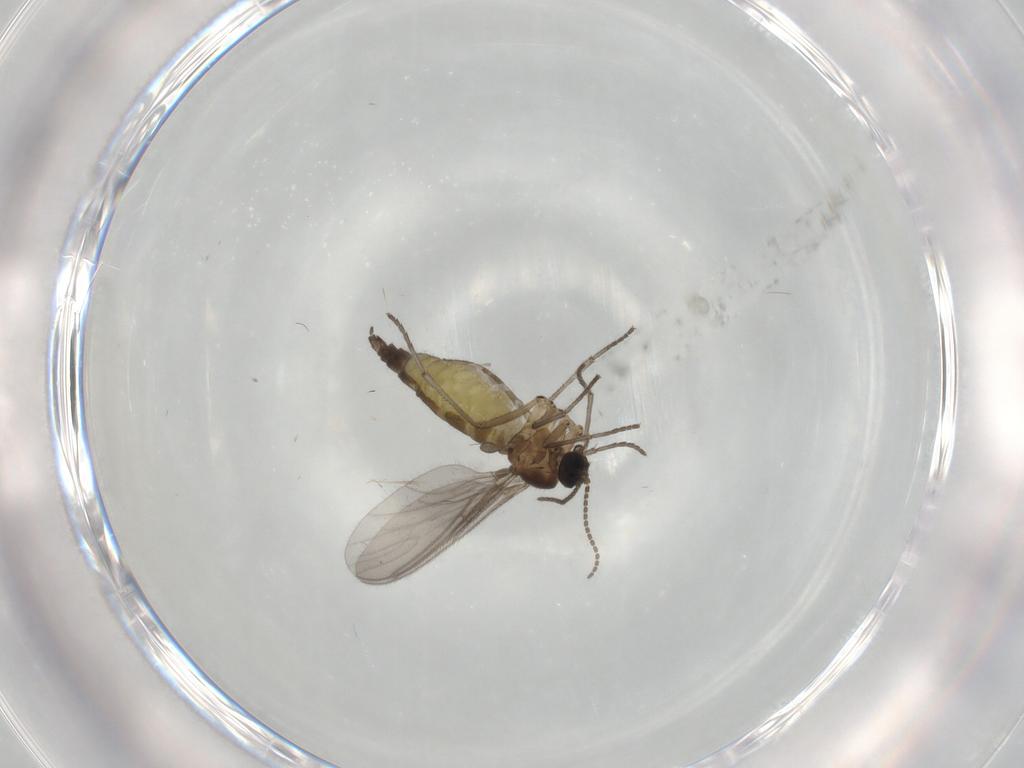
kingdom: Animalia
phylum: Arthropoda
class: Insecta
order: Diptera
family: Sciaridae
